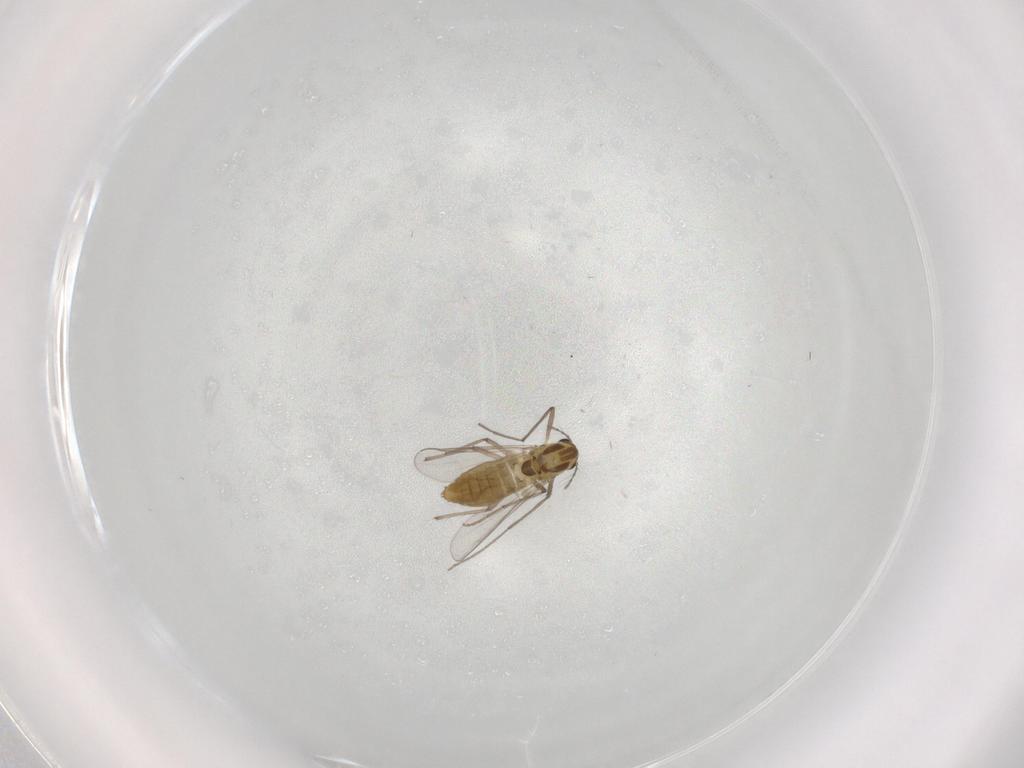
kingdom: Animalia
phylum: Arthropoda
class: Insecta
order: Diptera
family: Chironomidae
